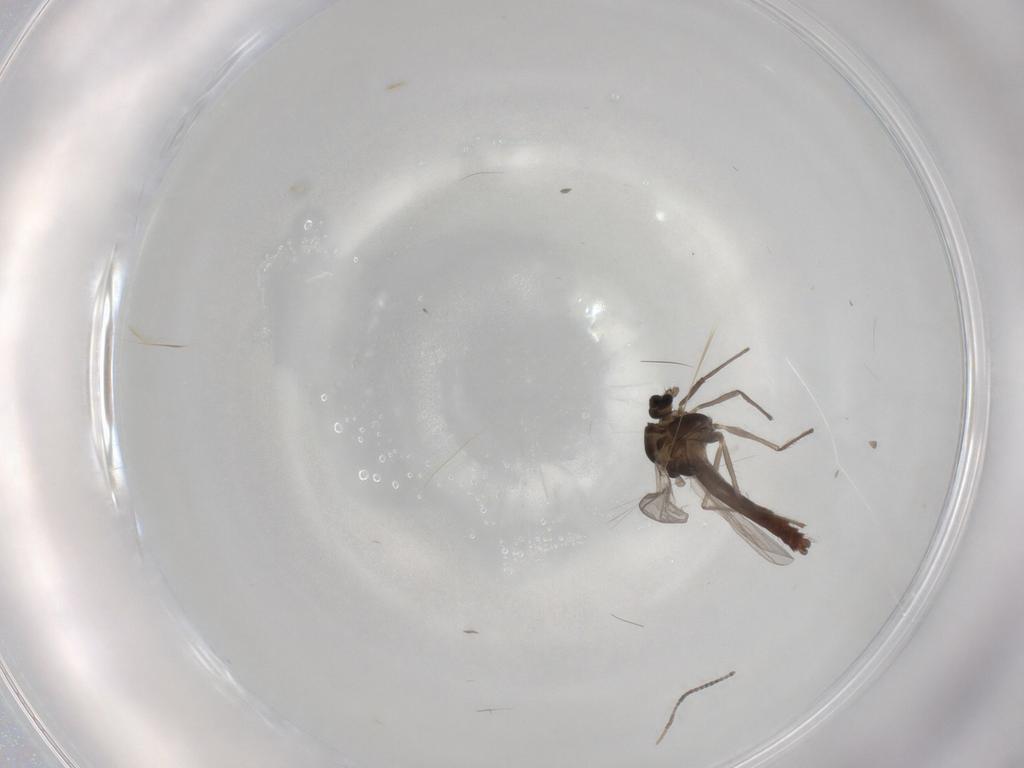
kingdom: Animalia
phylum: Arthropoda
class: Insecta
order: Diptera
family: Chironomidae
